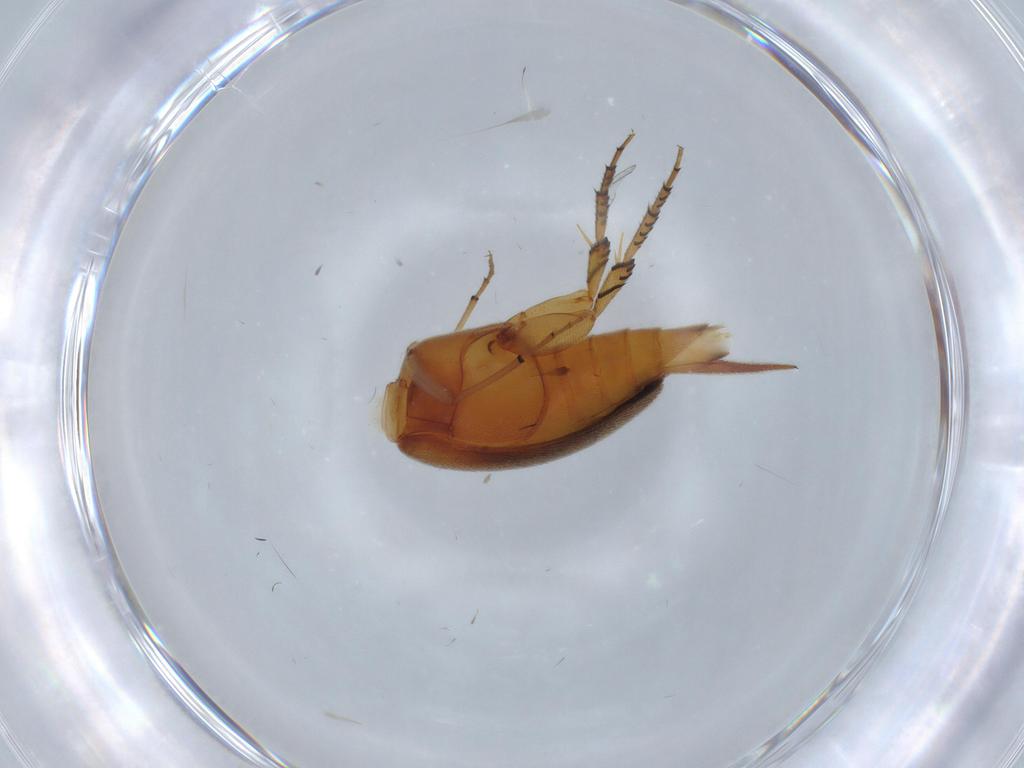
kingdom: Animalia
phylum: Arthropoda
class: Insecta
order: Coleoptera
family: Mordellidae
